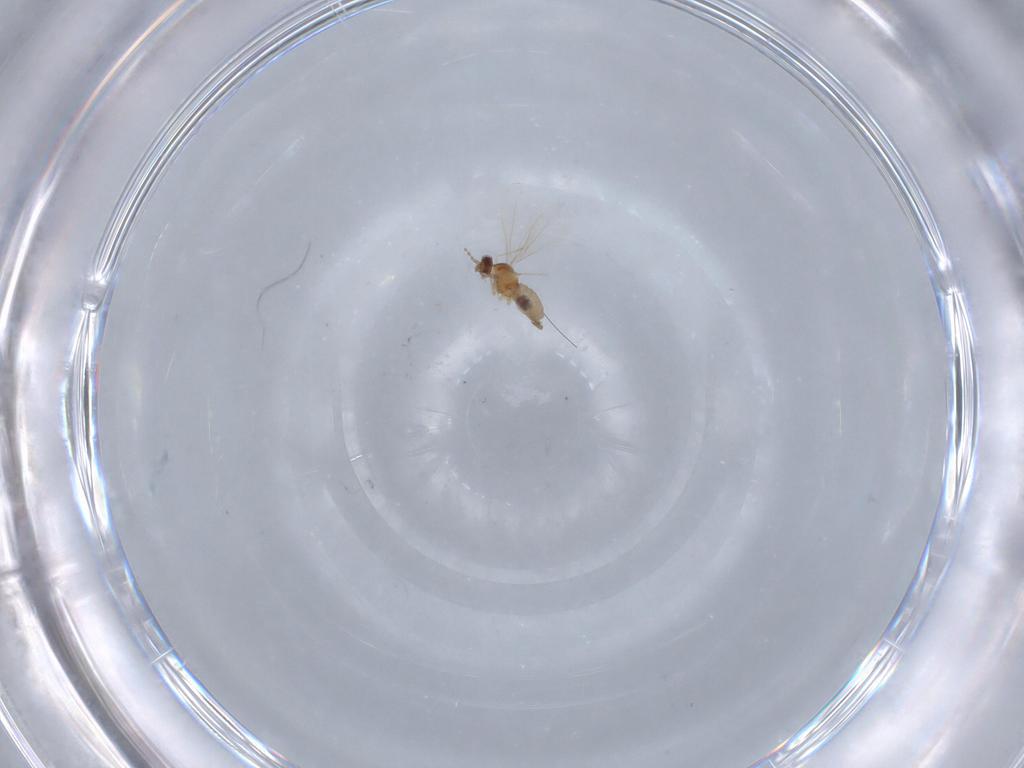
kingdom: Animalia
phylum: Arthropoda
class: Insecta
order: Diptera
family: Cecidomyiidae
